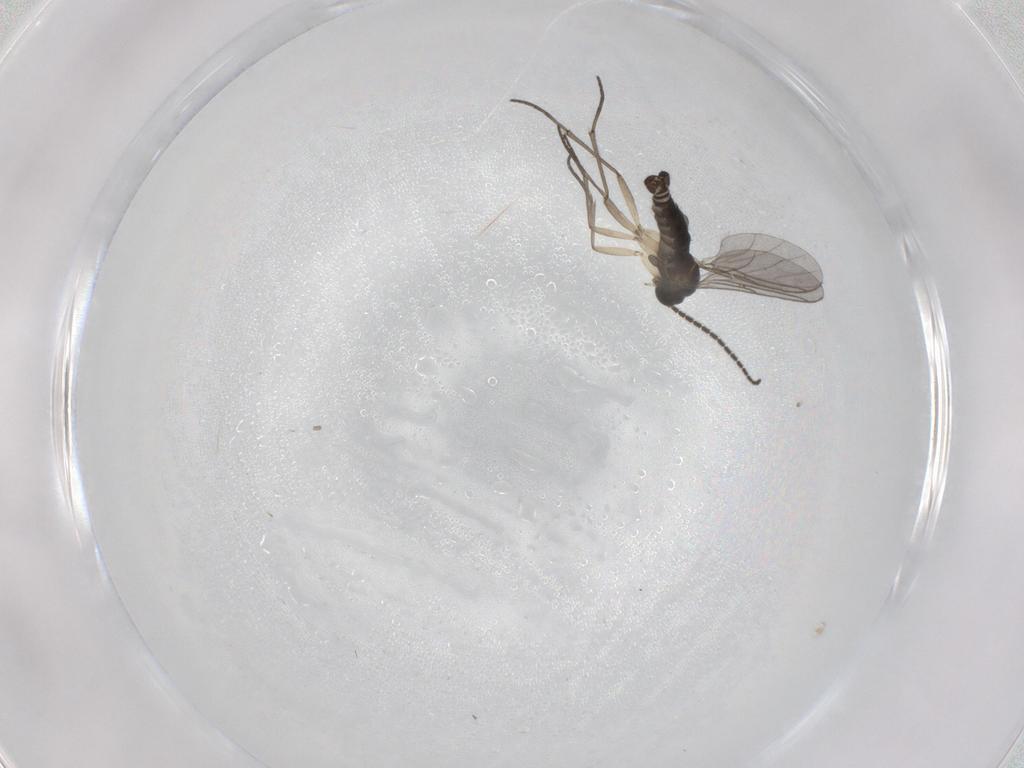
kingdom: Animalia
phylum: Arthropoda
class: Insecta
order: Diptera
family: Sciaridae
